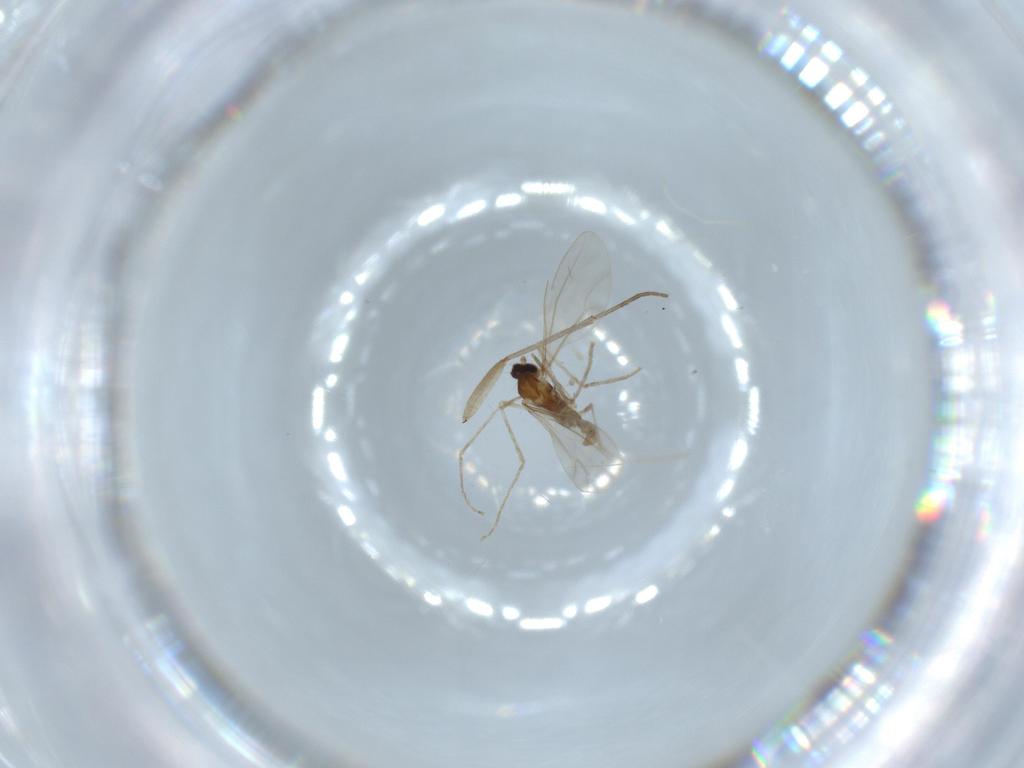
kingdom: Animalia
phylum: Arthropoda
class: Insecta
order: Diptera
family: Cecidomyiidae
